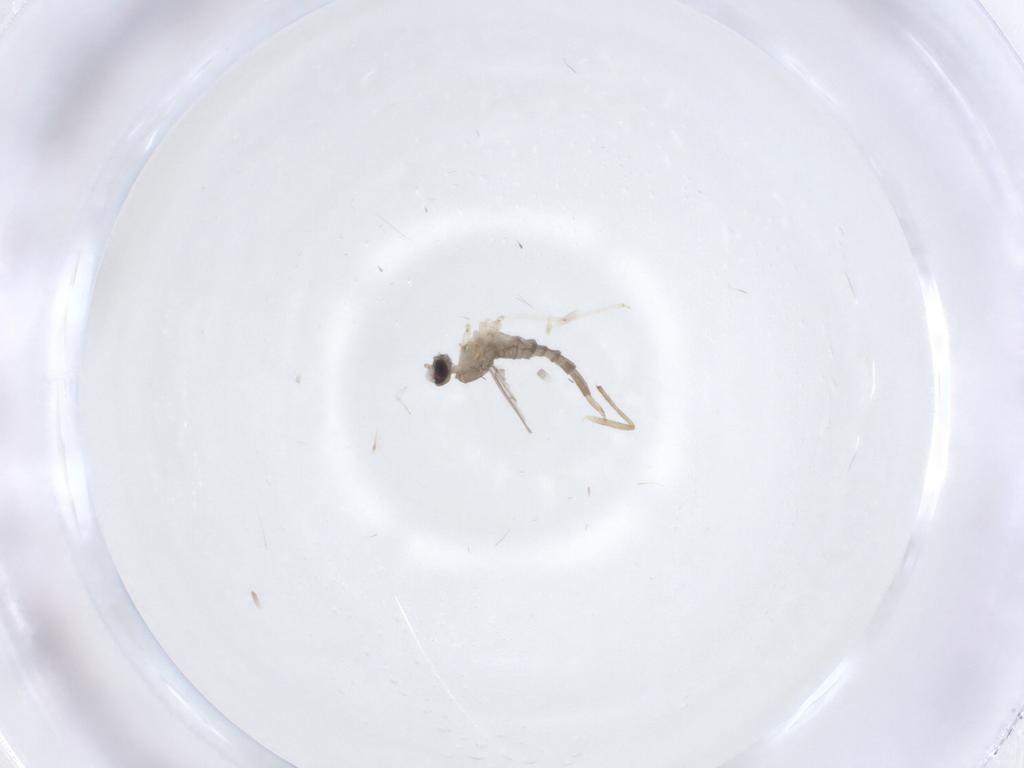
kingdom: Animalia
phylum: Arthropoda
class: Insecta
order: Diptera
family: Cecidomyiidae
